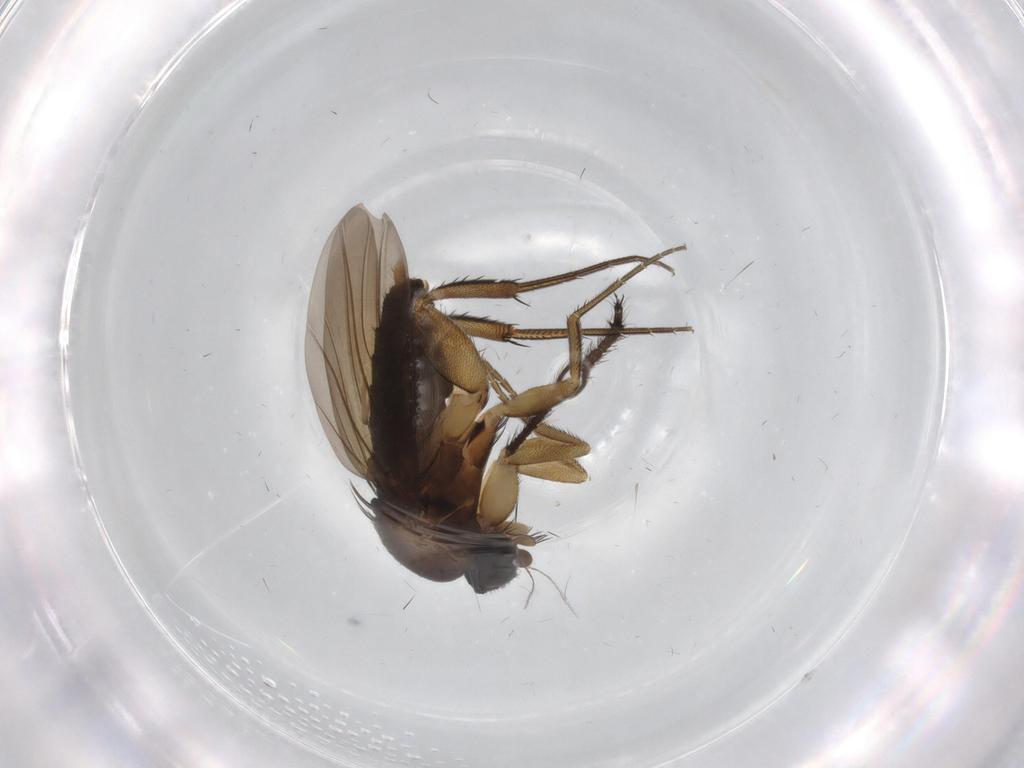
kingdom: Animalia
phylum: Arthropoda
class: Insecta
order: Diptera
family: Phoridae
